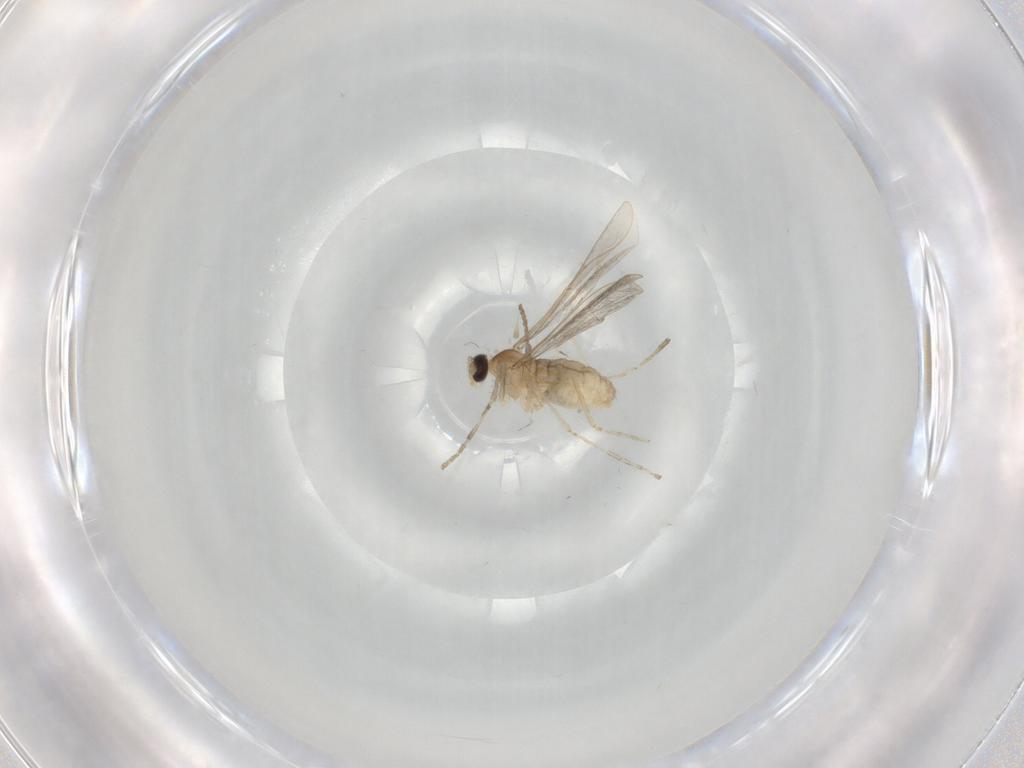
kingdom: Animalia
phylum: Arthropoda
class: Insecta
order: Diptera
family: Cecidomyiidae
